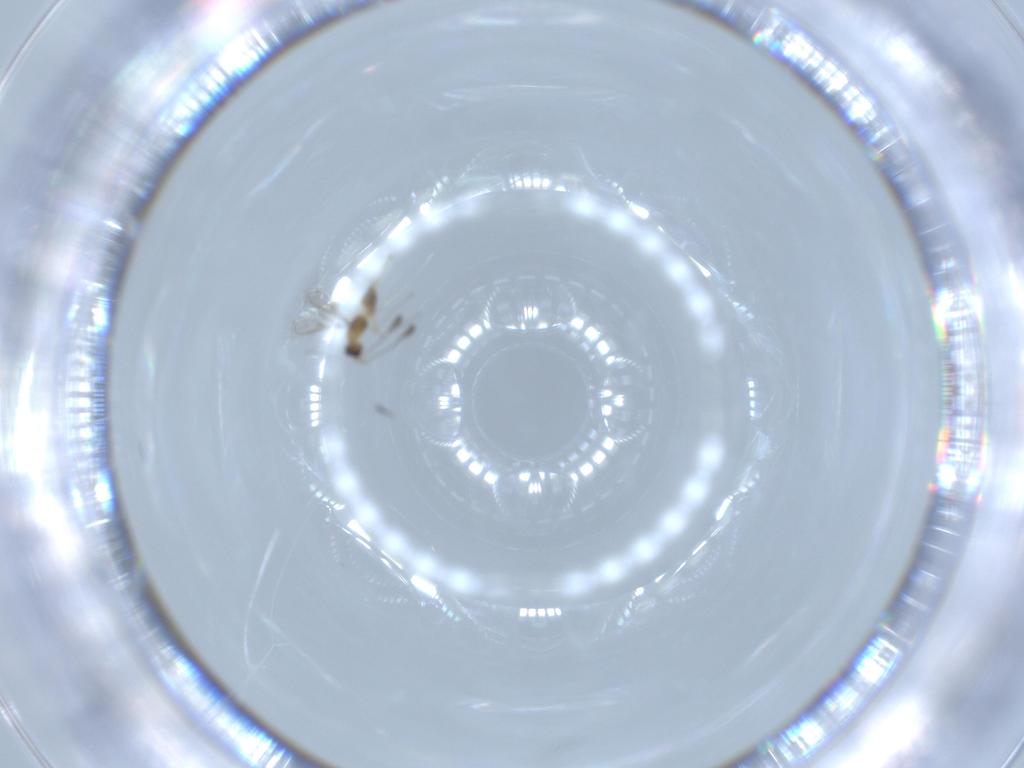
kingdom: Animalia
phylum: Arthropoda
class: Insecta
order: Hymenoptera
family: Mymaridae
